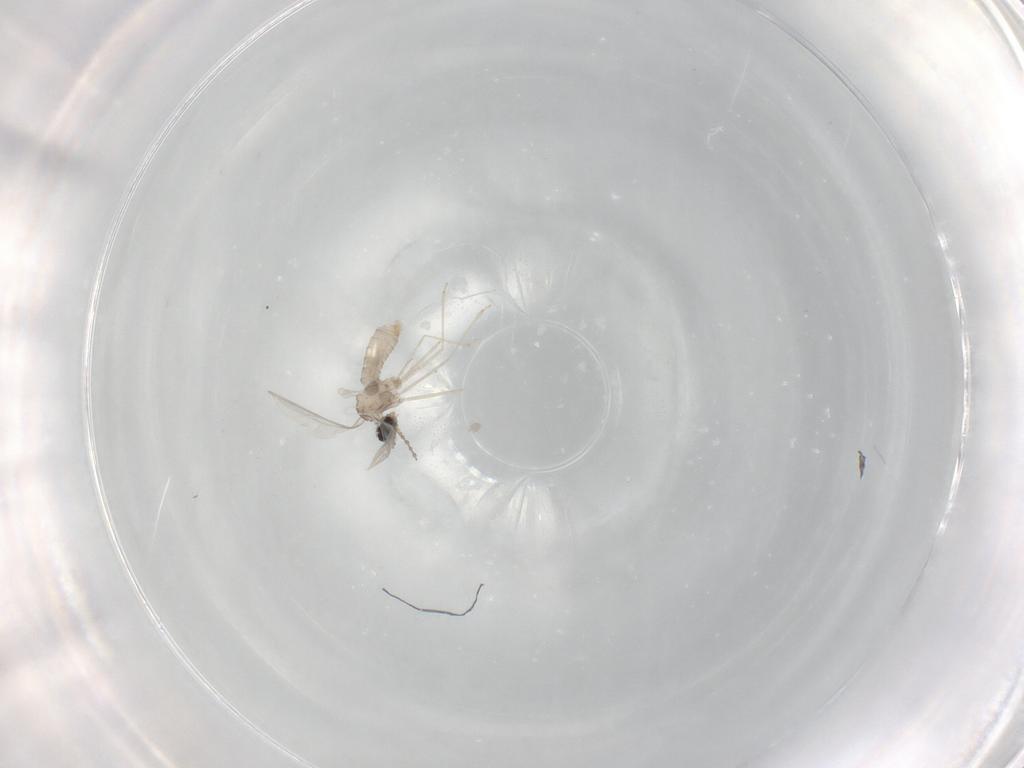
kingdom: Animalia
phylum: Arthropoda
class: Insecta
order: Diptera
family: Cecidomyiidae
